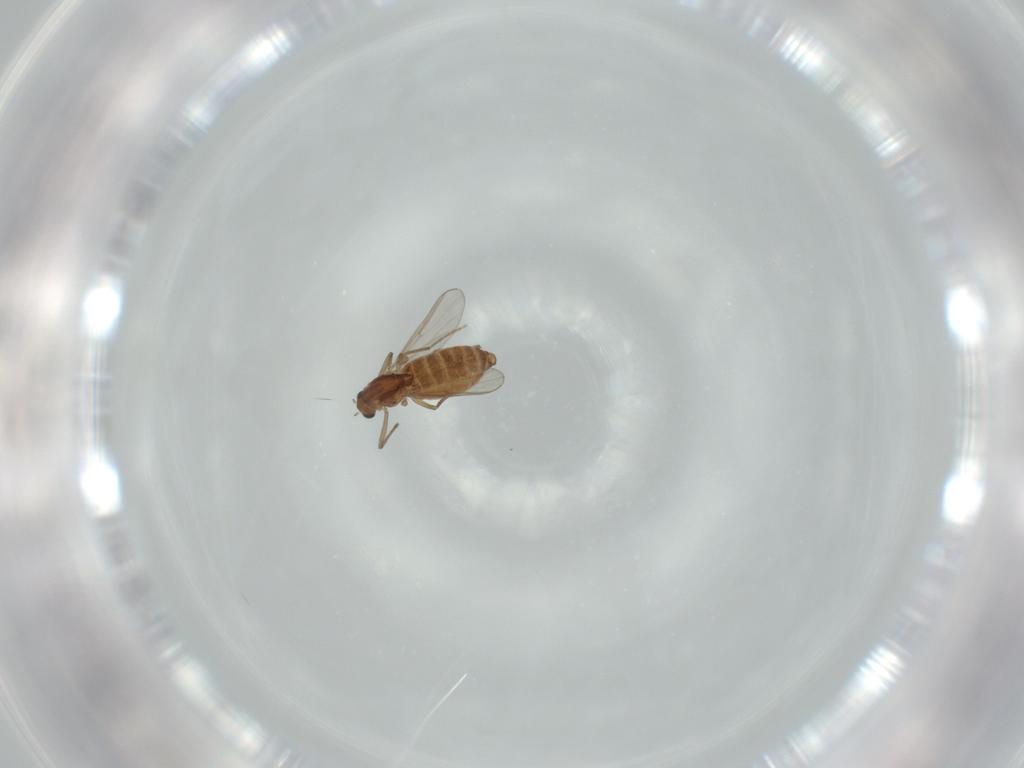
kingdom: Animalia
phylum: Arthropoda
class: Insecta
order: Diptera
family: Chironomidae
